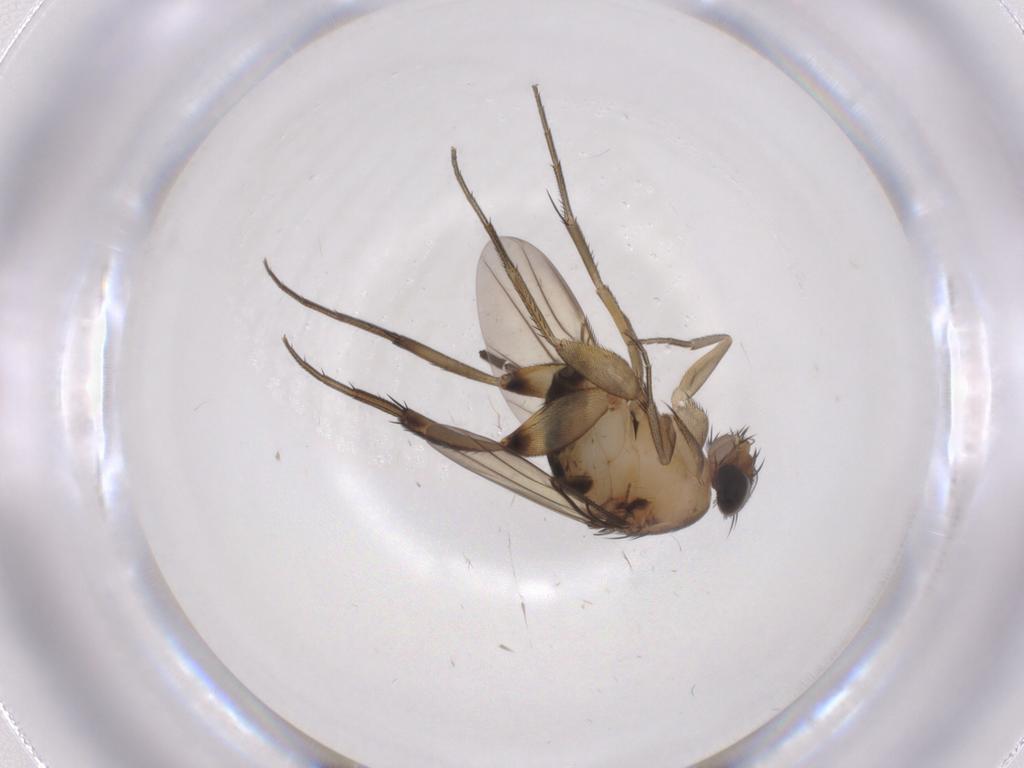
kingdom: Animalia
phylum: Arthropoda
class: Insecta
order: Diptera
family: Phoridae
